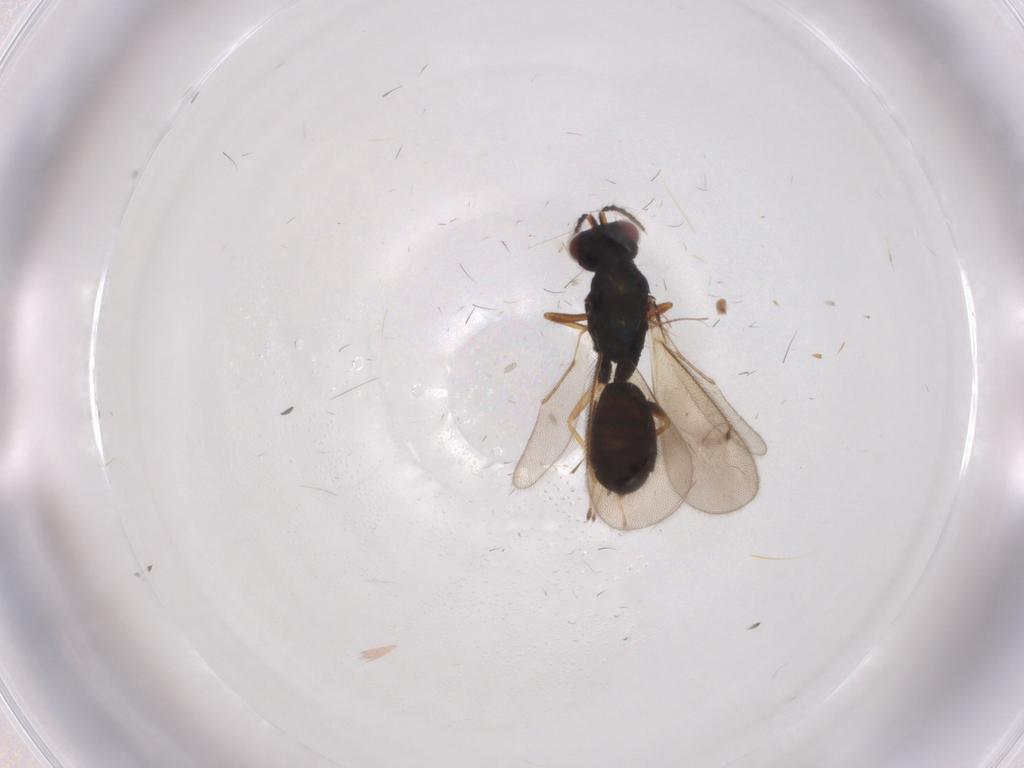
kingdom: Animalia
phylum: Arthropoda
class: Insecta
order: Hymenoptera
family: Eulophidae
